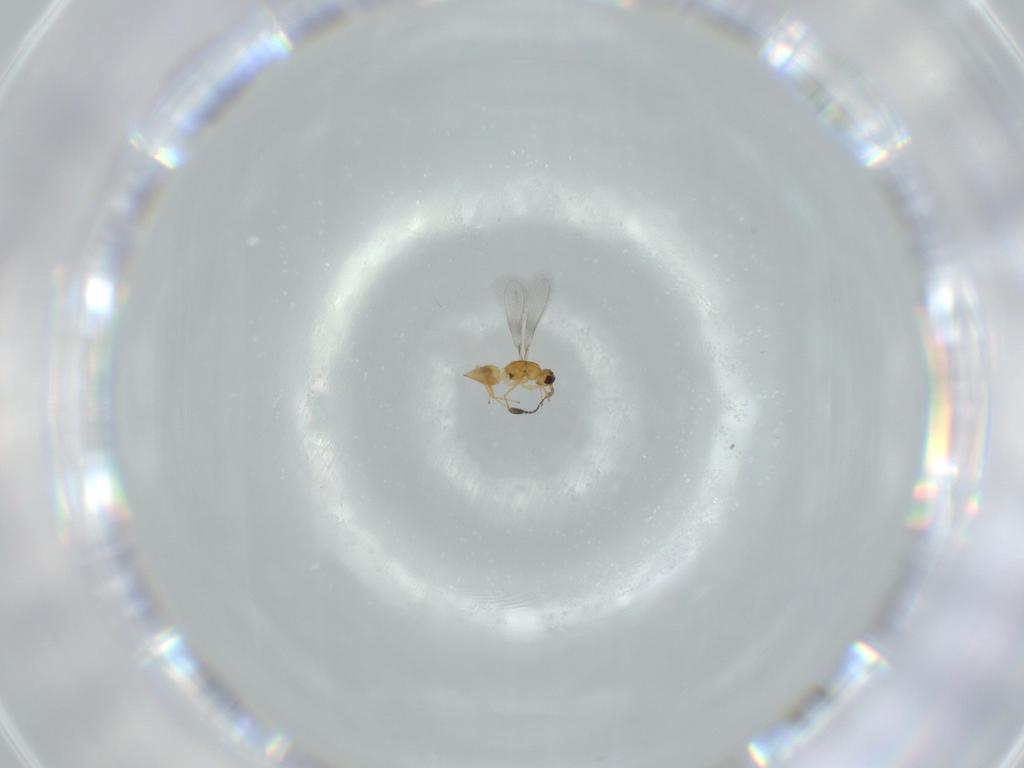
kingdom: Animalia
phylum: Arthropoda
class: Insecta
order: Hymenoptera
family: Encyrtidae
